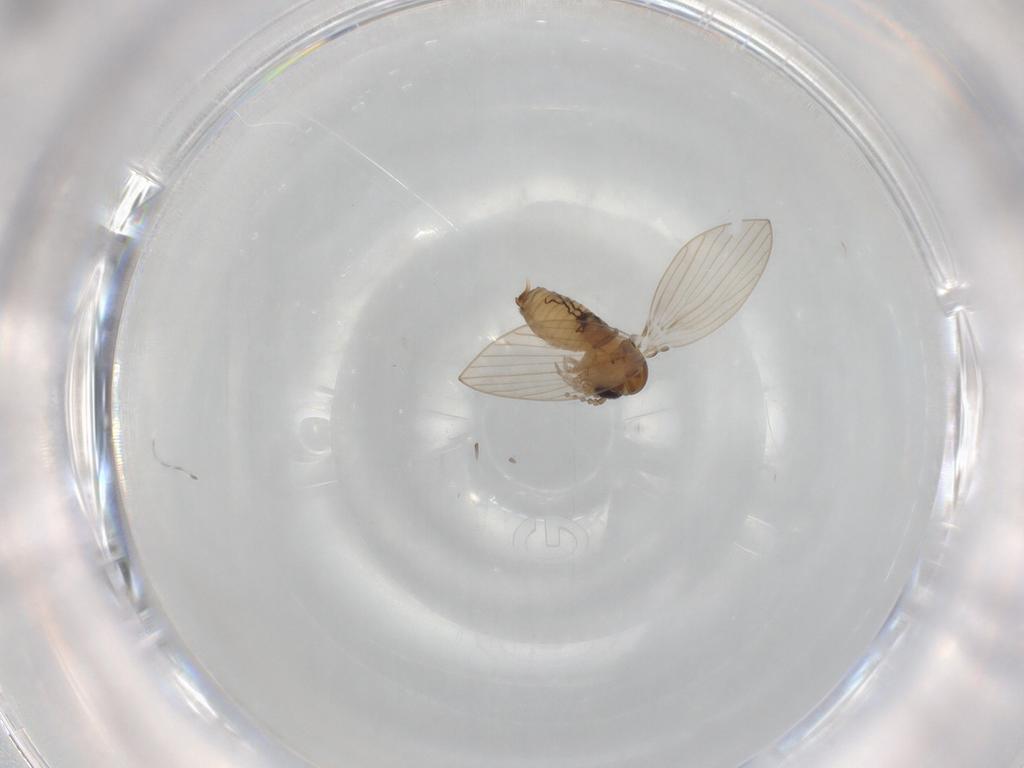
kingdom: Animalia
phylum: Arthropoda
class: Insecta
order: Diptera
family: Psychodidae
